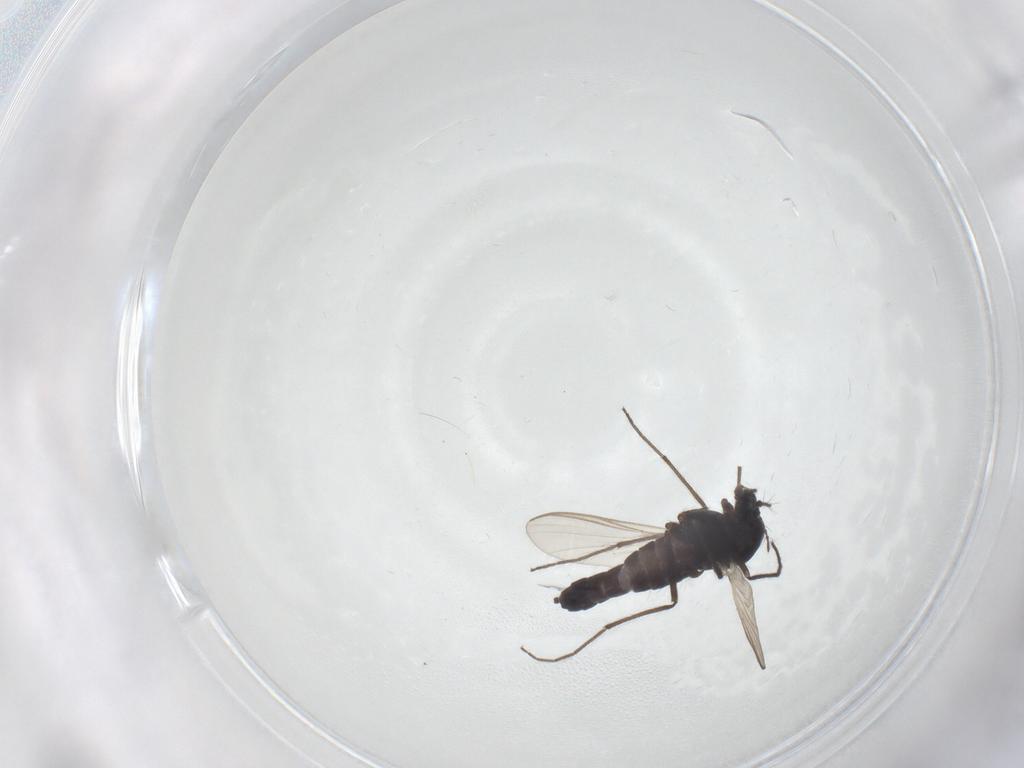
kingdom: Animalia
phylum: Arthropoda
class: Insecta
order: Diptera
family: Chironomidae
